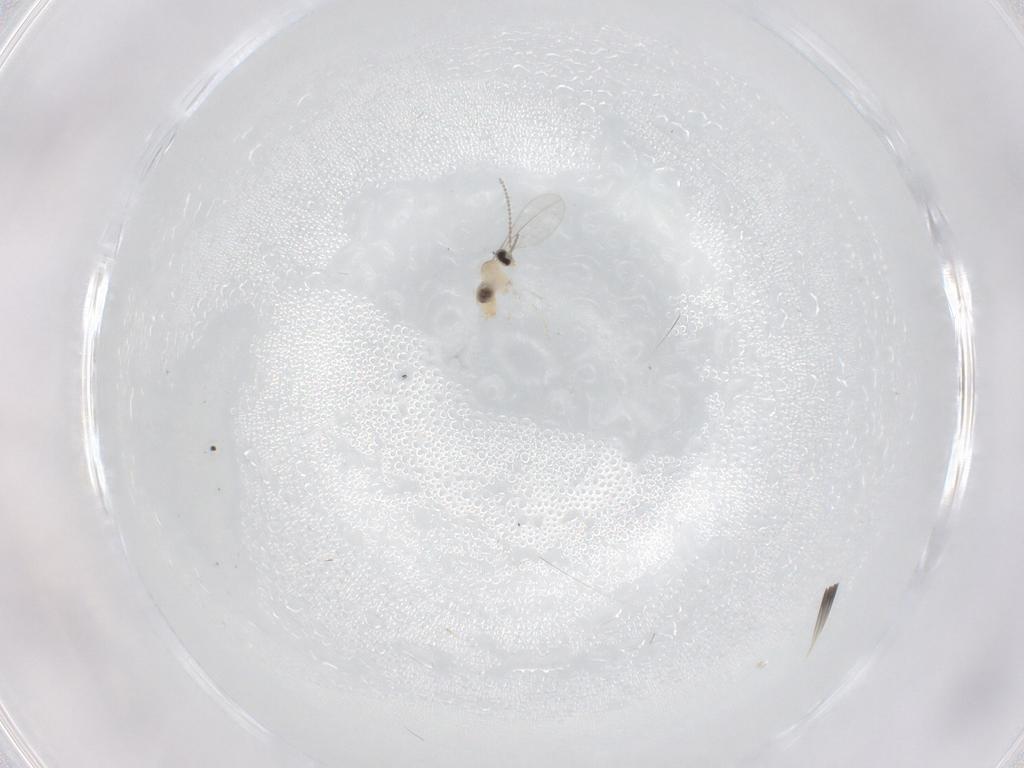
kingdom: Animalia
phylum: Arthropoda
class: Insecta
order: Diptera
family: Cecidomyiidae
